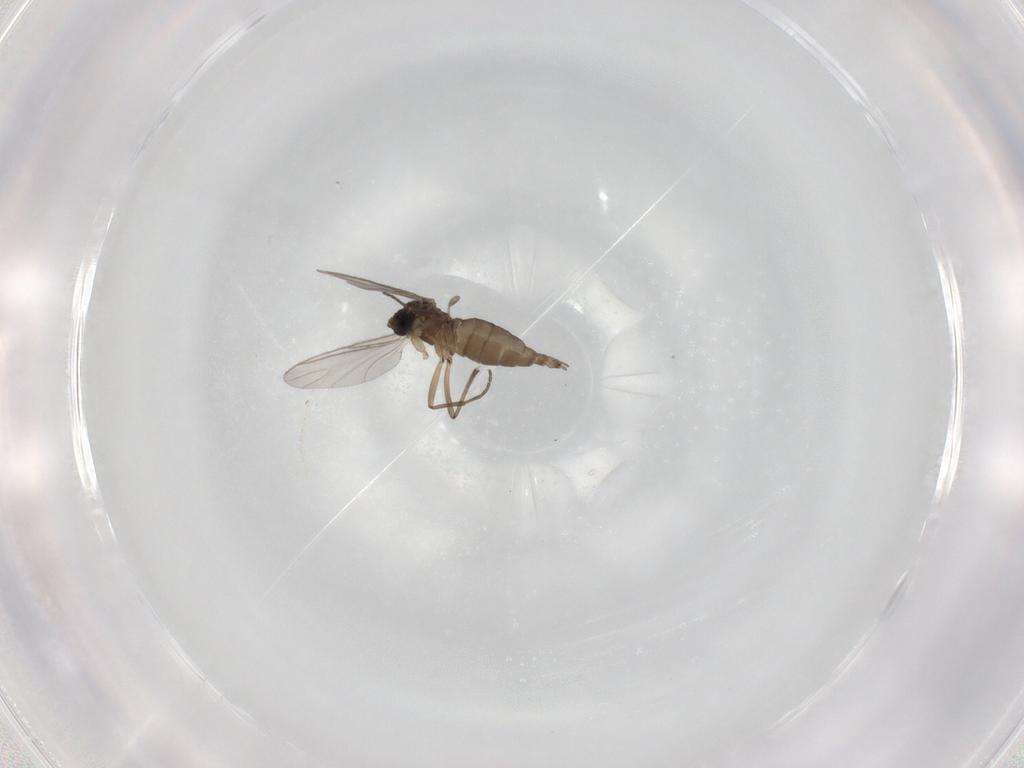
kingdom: Animalia
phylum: Arthropoda
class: Insecta
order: Diptera
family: Sciaridae
